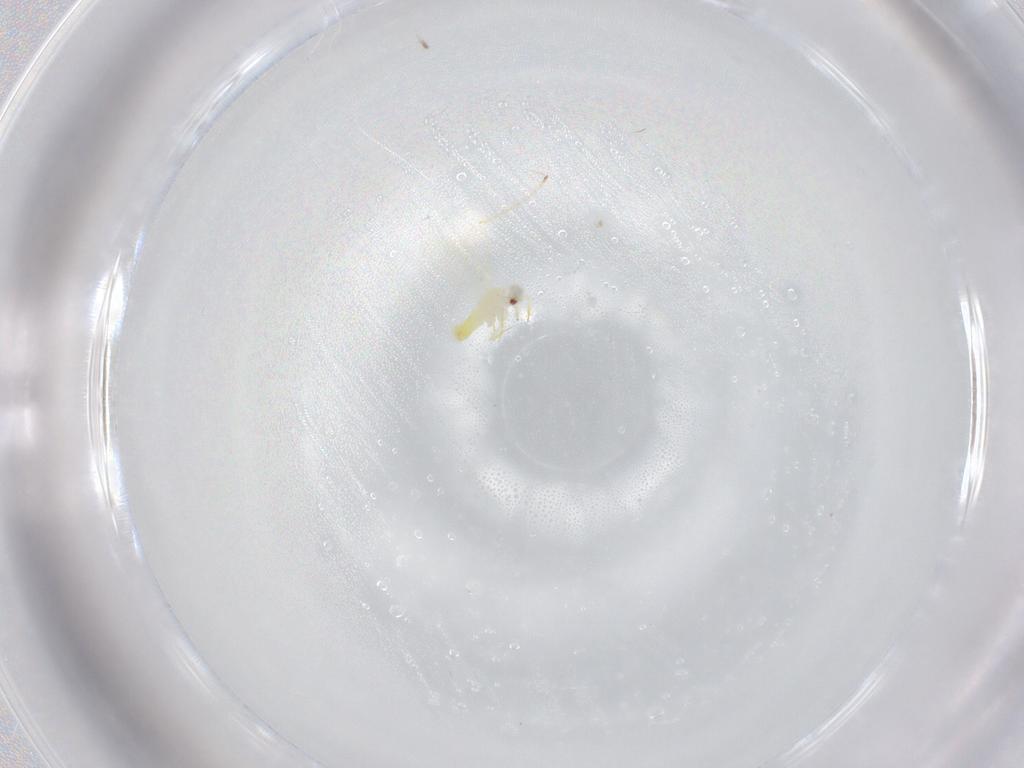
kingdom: Animalia
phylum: Arthropoda
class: Insecta
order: Hemiptera
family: Aleyrodidae
